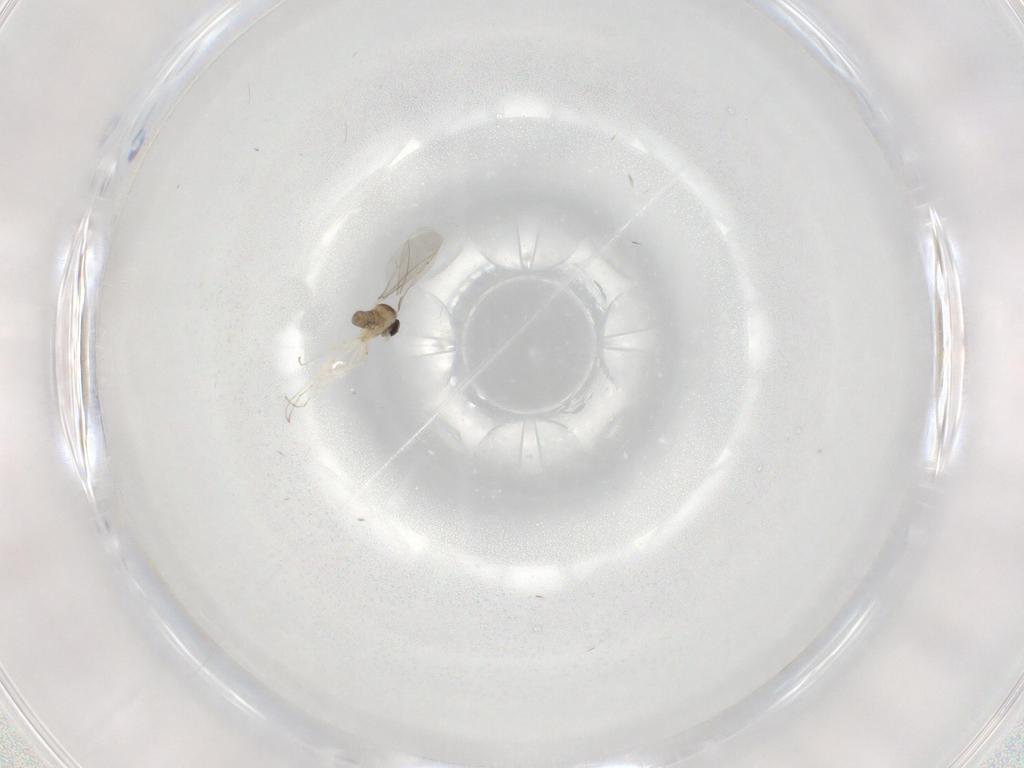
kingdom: Animalia
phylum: Arthropoda
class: Insecta
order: Diptera
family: Cecidomyiidae
